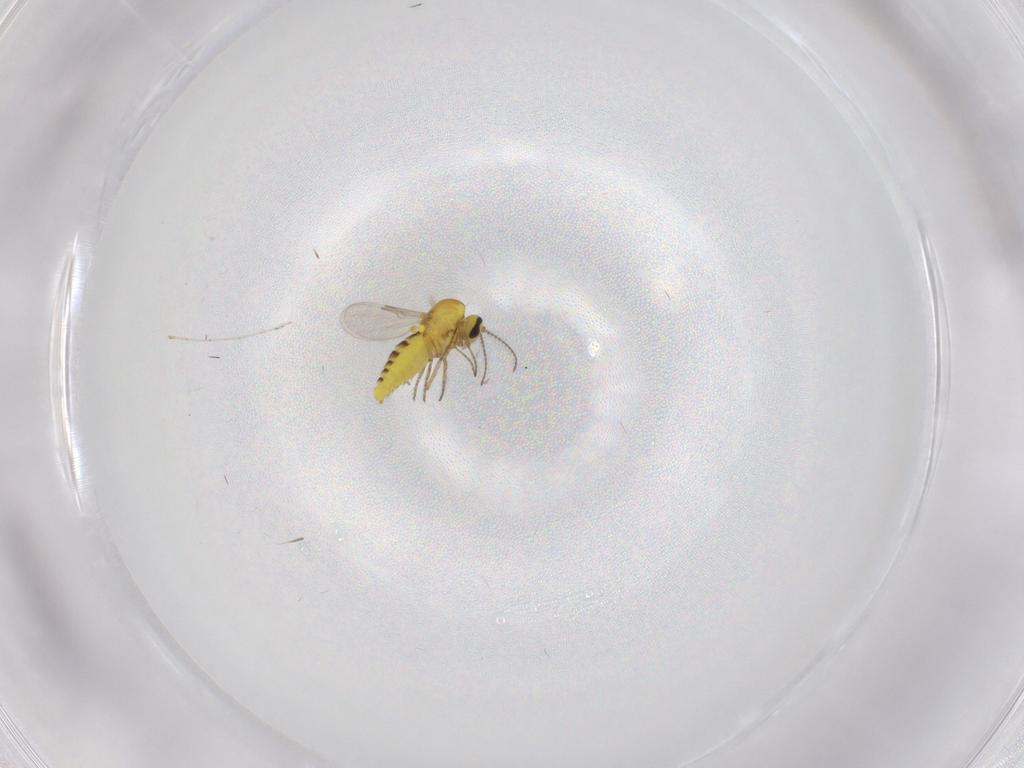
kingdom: Animalia
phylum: Arthropoda
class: Insecta
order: Diptera
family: Ceratopogonidae
